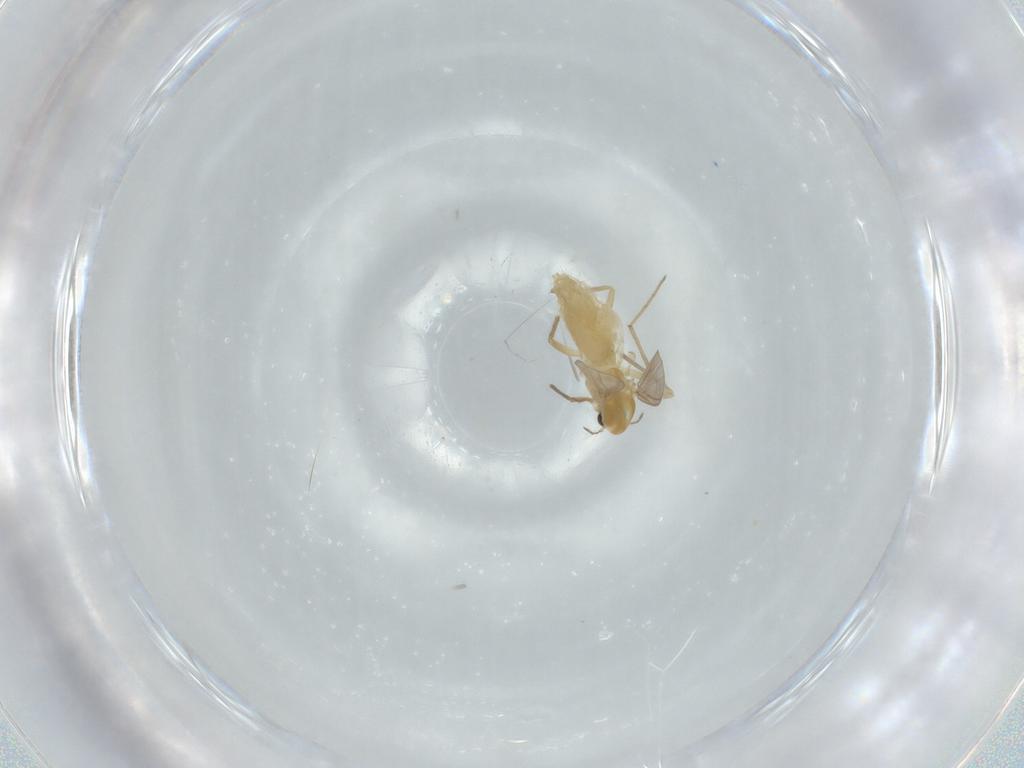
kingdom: Animalia
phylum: Arthropoda
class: Insecta
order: Diptera
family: Chironomidae
